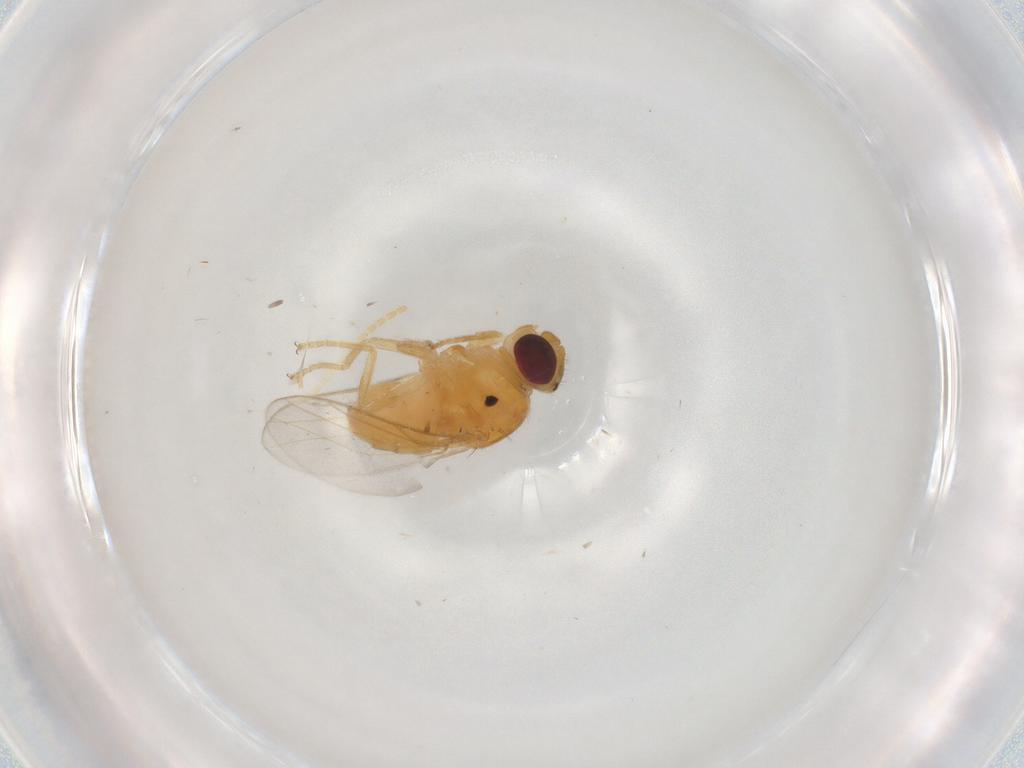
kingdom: Animalia
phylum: Arthropoda
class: Insecta
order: Diptera
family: Chloropidae
